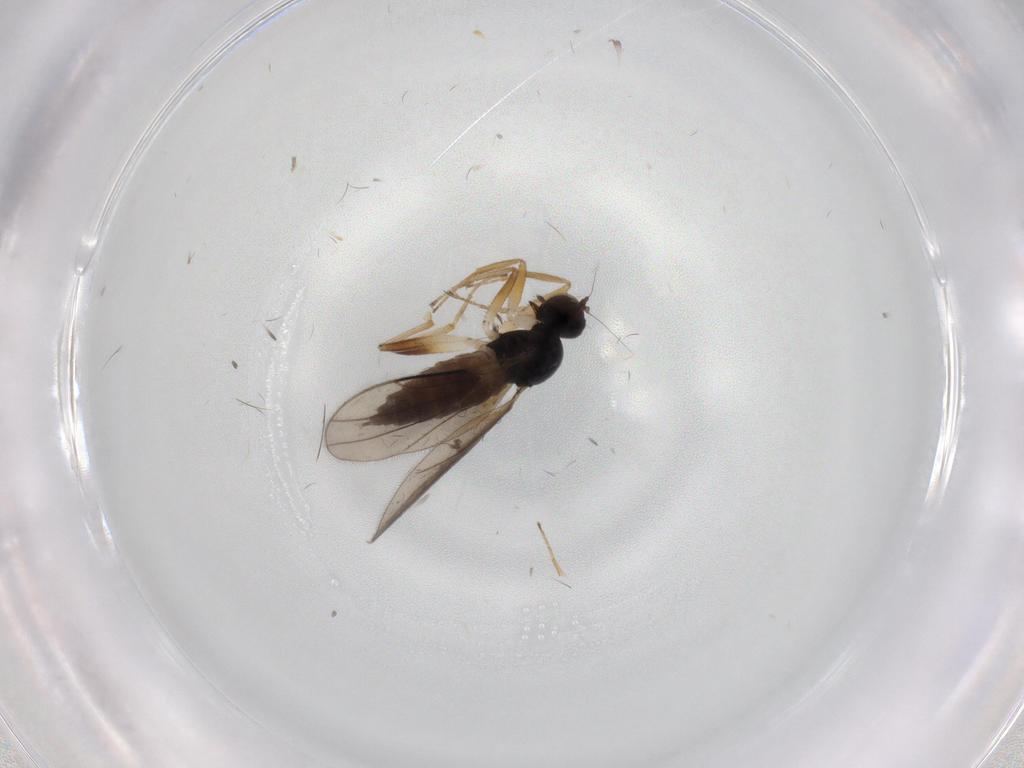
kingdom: Animalia
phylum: Arthropoda
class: Insecta
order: Diptera
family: Hybotidae
